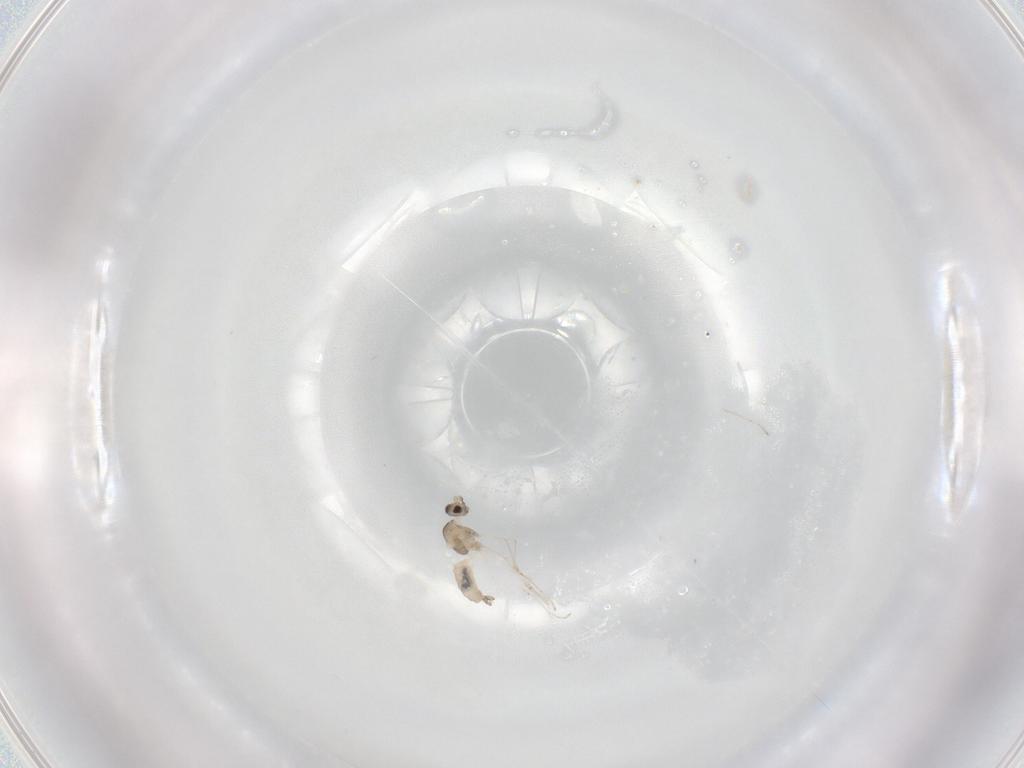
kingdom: Animalia
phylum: Arthropoda
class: Insecta
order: Diptera
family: Cecidomyiidae
